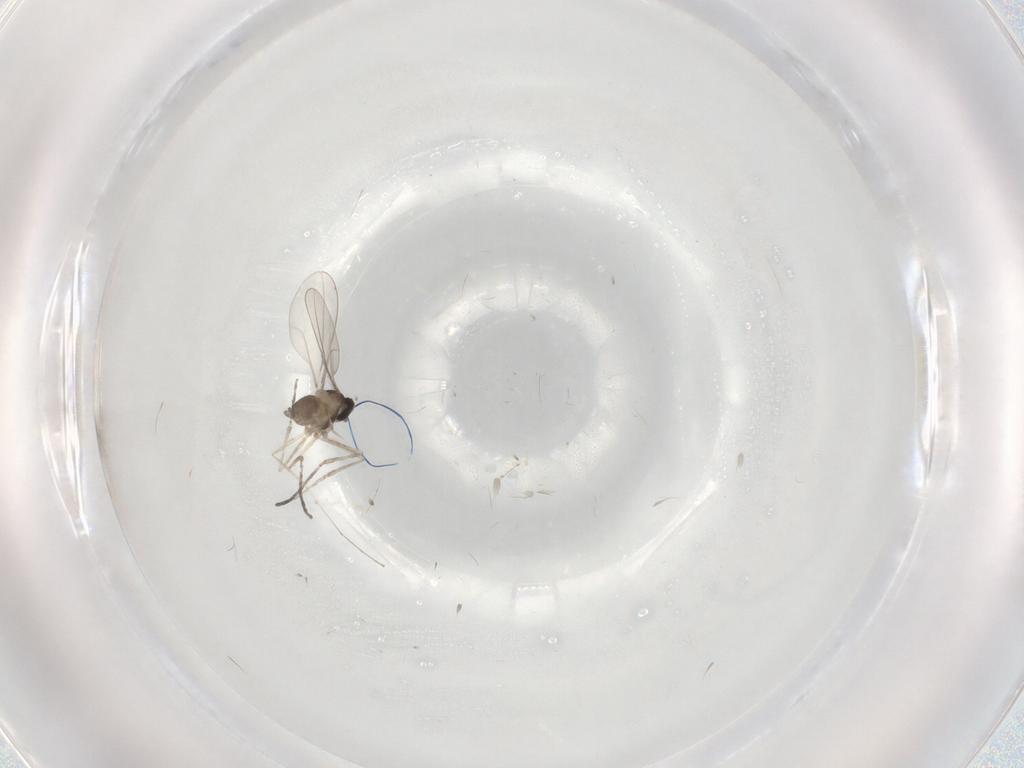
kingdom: Animalia
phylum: Arthropoda
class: Insecta
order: Diptera
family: Cecidomyiidae
